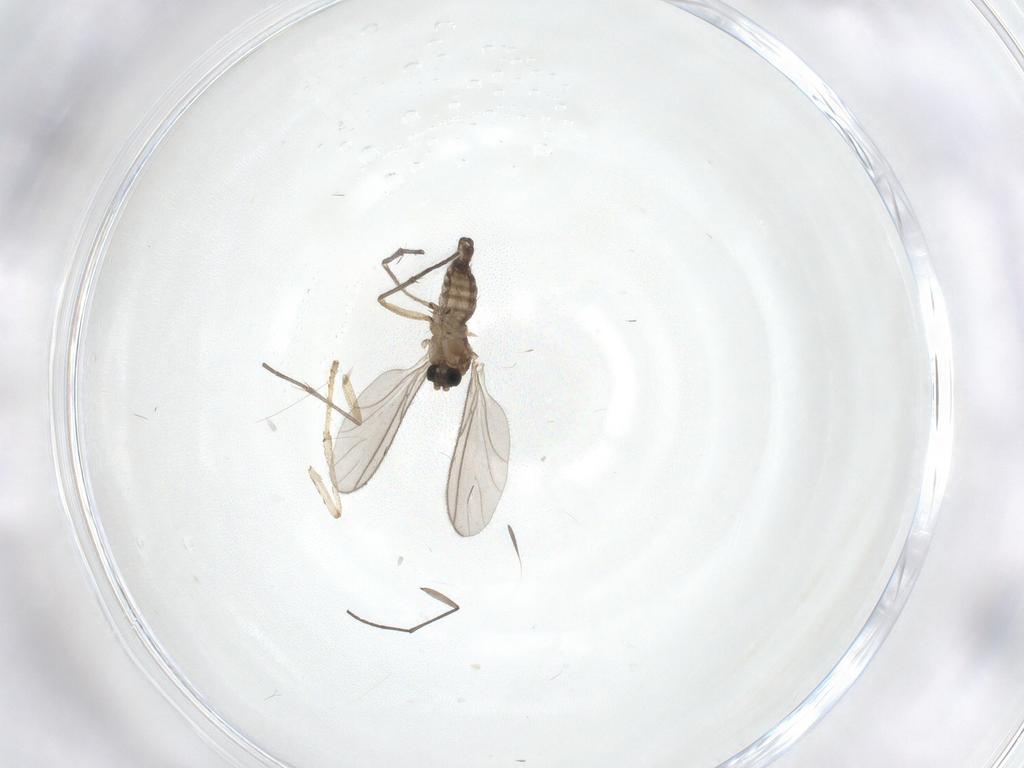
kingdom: Animalia
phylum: Arthropoda
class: Insecta
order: Diptera
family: Sciaridae
